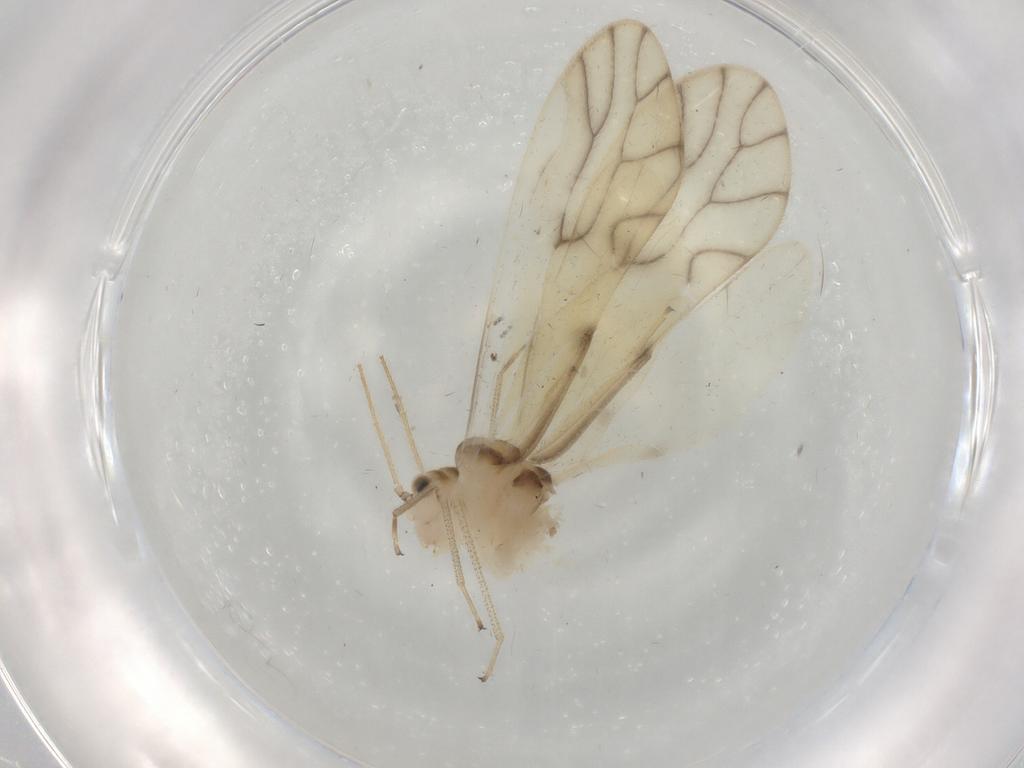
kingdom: Animalia
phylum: Arthropoda
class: Insecta
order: Psocodea
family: Caeciliusidae
